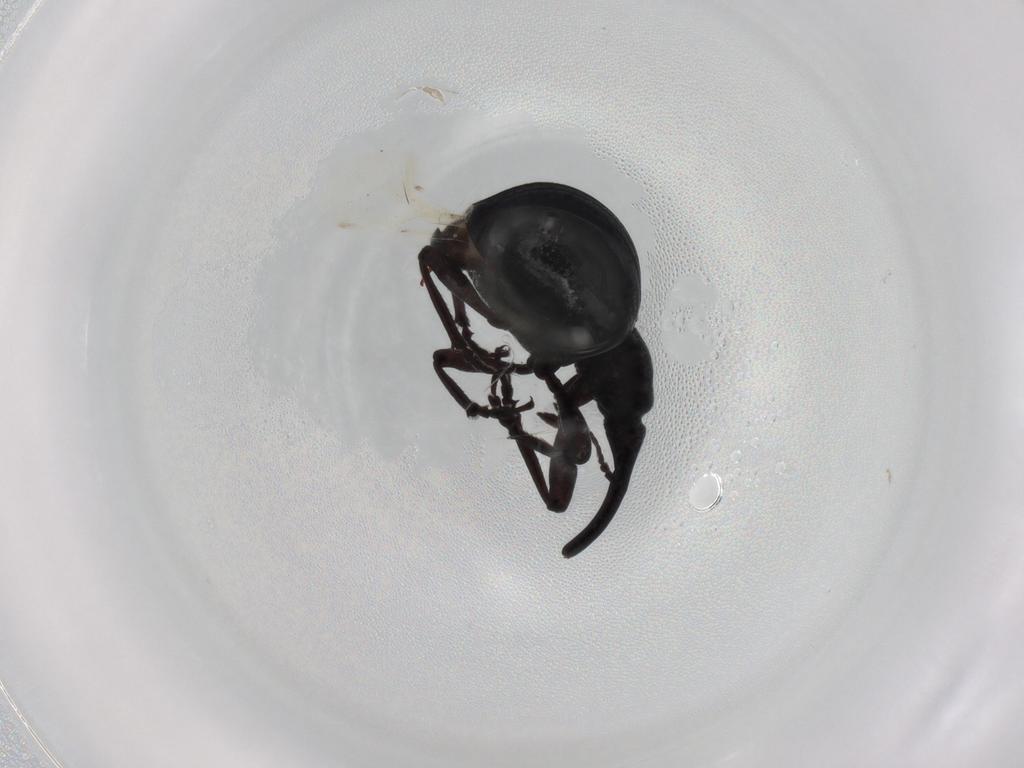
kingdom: Animalia
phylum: Arthropoda
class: Insecta
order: Coleoptera
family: Brentidae
